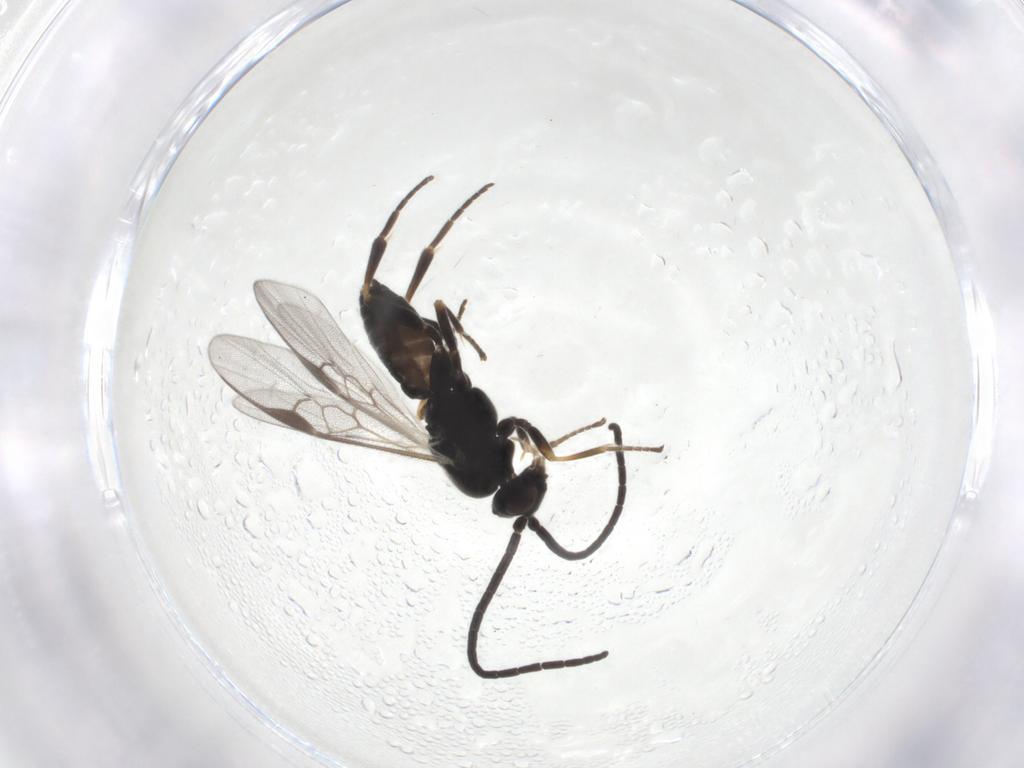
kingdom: Animalia
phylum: Arthropoda
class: Insecta
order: Hymenoptera
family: Braconidae
